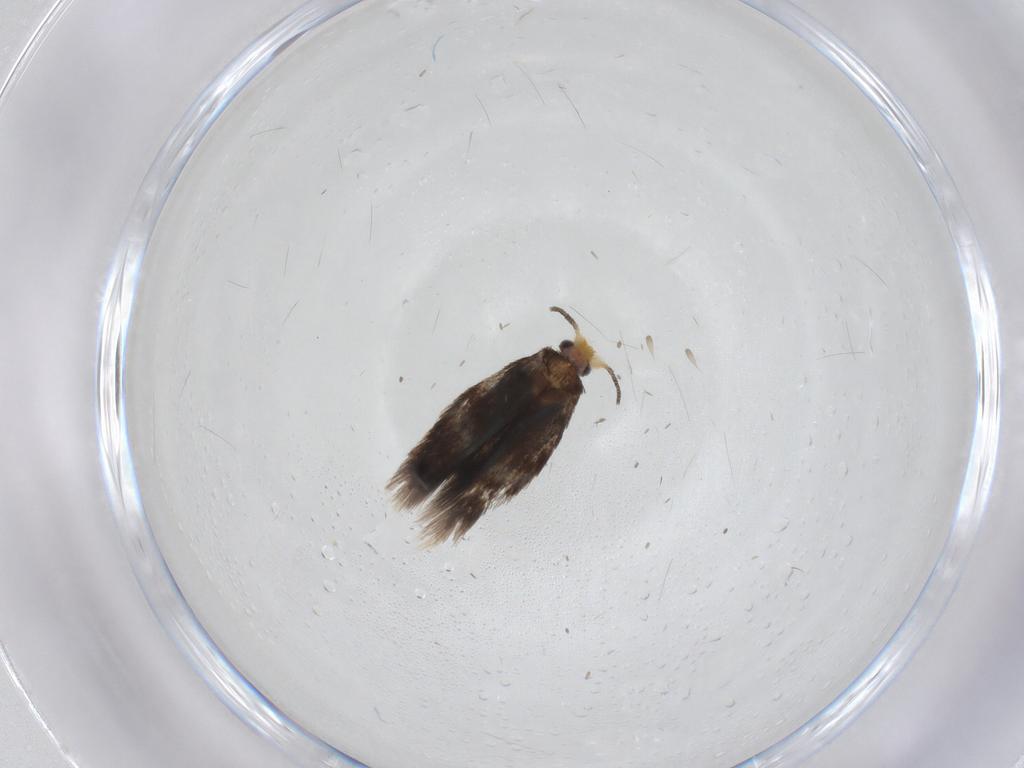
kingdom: Animalia
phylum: Arthropoda
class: Insecta
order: Lepidoptera
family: Nepticulidae
